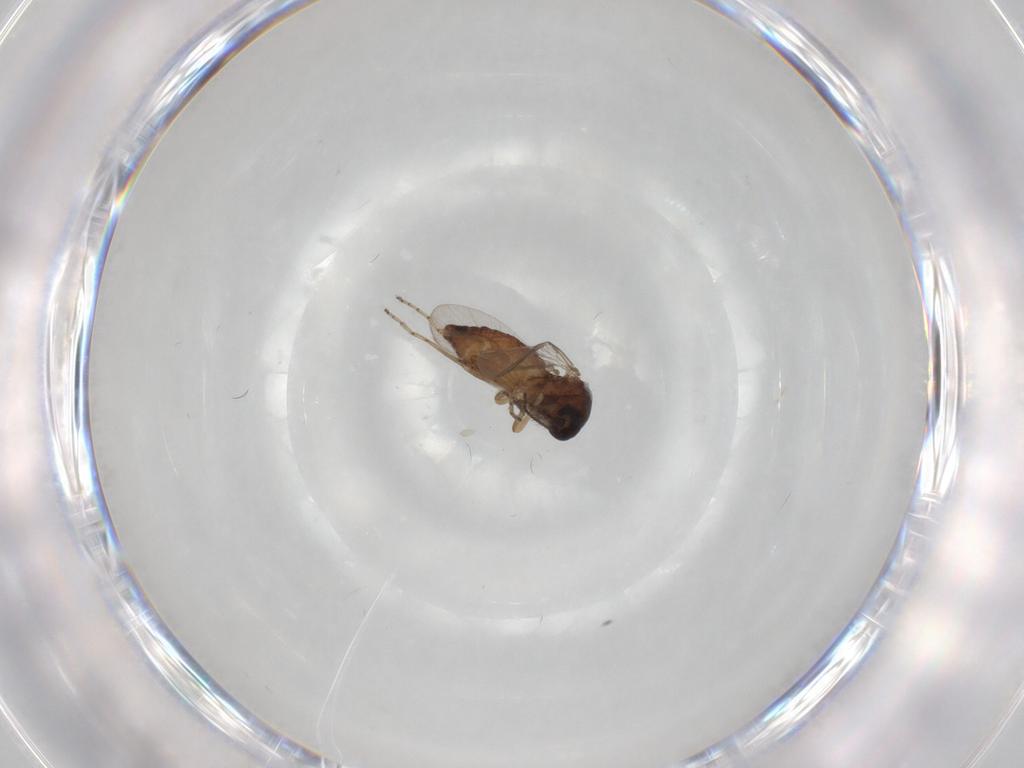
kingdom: Animalia
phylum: Arthropoda
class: Insecta
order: Diptera
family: Ceratopogonidae
